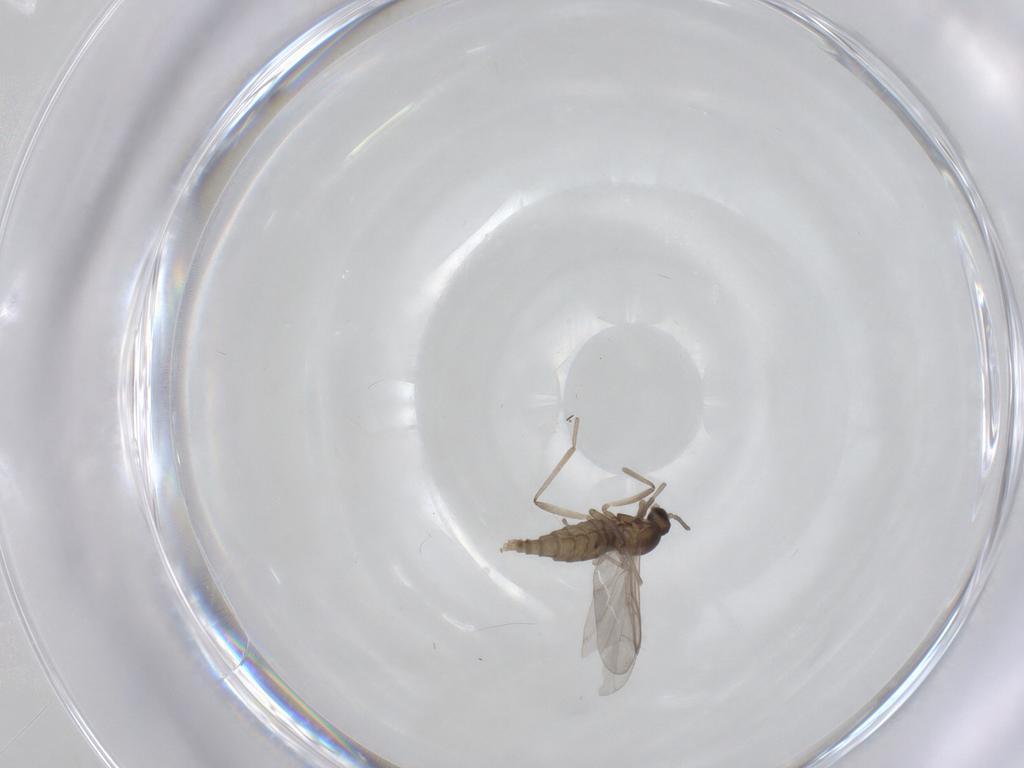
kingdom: Animalia
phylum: Arthropoda
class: Insecta
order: Diptera
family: Cecidomyiidae
